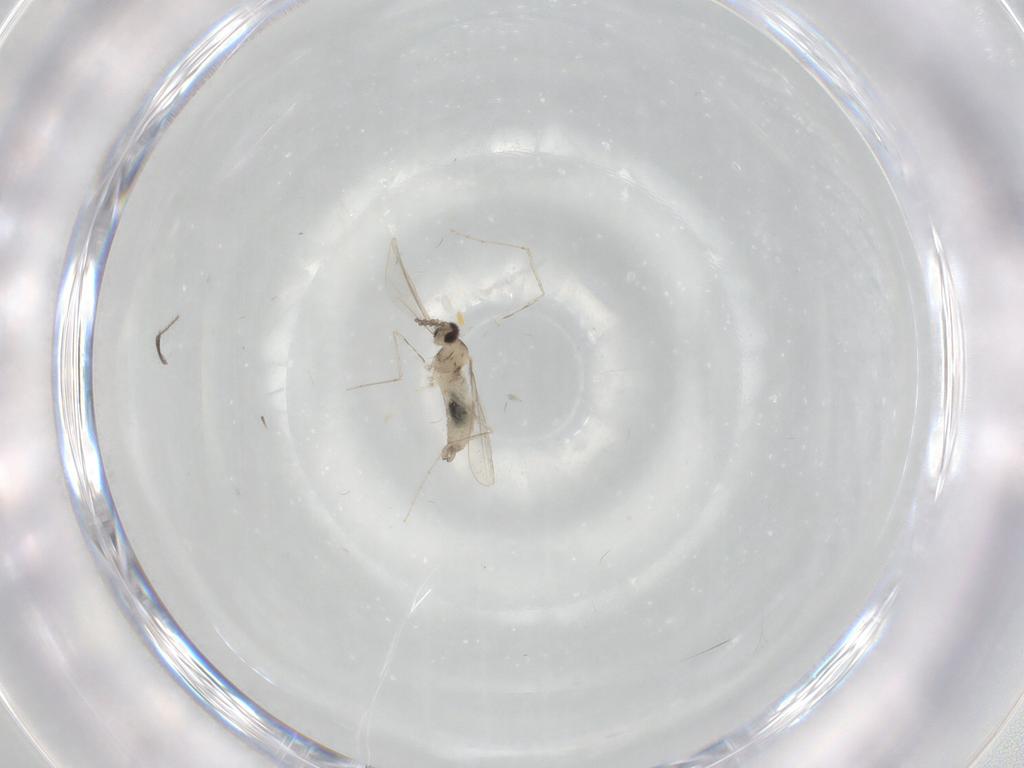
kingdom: Animalia
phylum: Arthropoda
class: Insecta
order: Diptera
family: Cecidomyiidae
